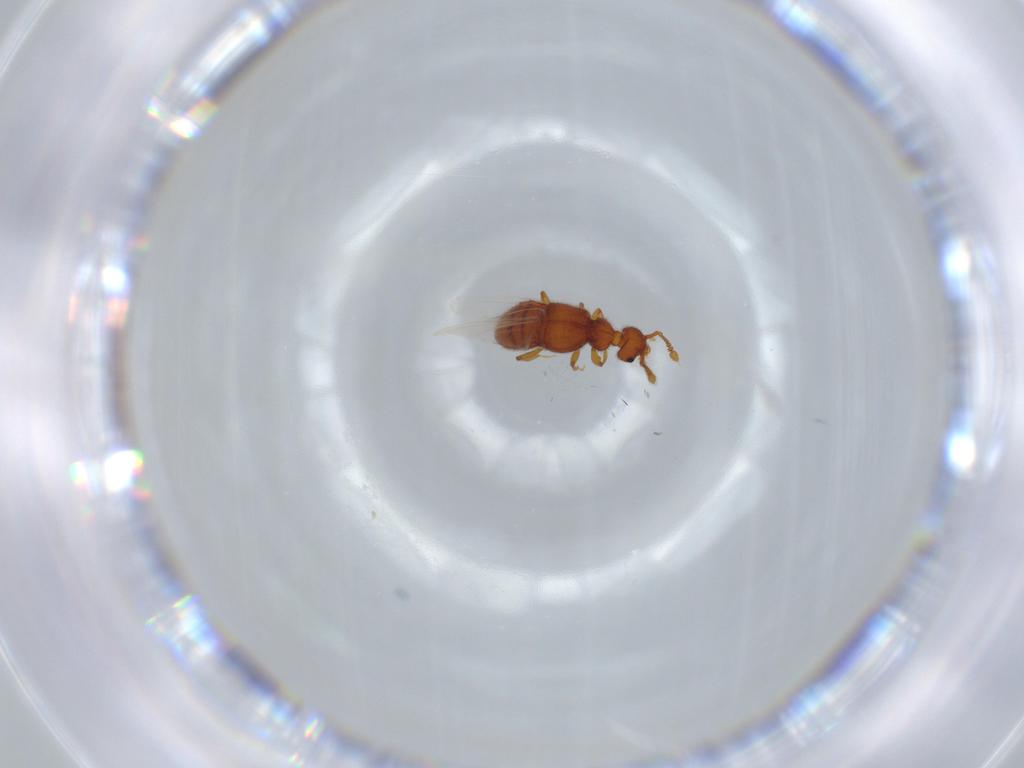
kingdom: Animalia
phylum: Arthropoda
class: Insecta
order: Coleoptera
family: Staphylinidae
